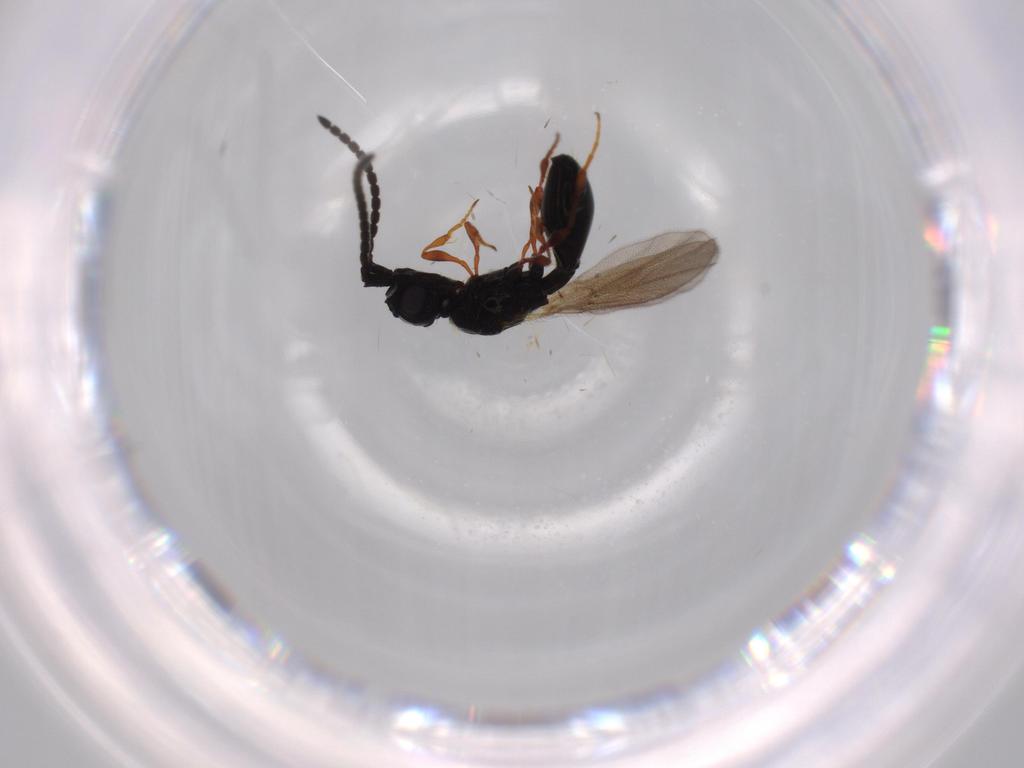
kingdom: Animalia
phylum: Arthropoda
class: Insecta
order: Hymenoptera
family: Diapriidae
